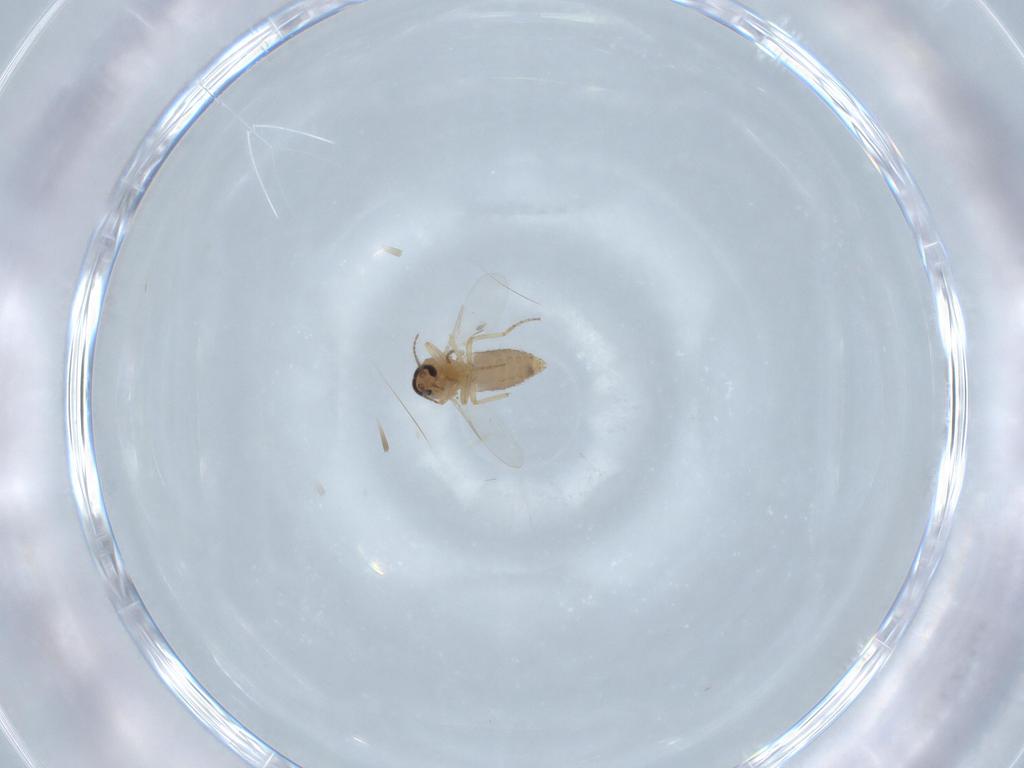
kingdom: Animalia
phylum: Arthropoda
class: Insecta
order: Diptera
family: Ceratopogonidae
